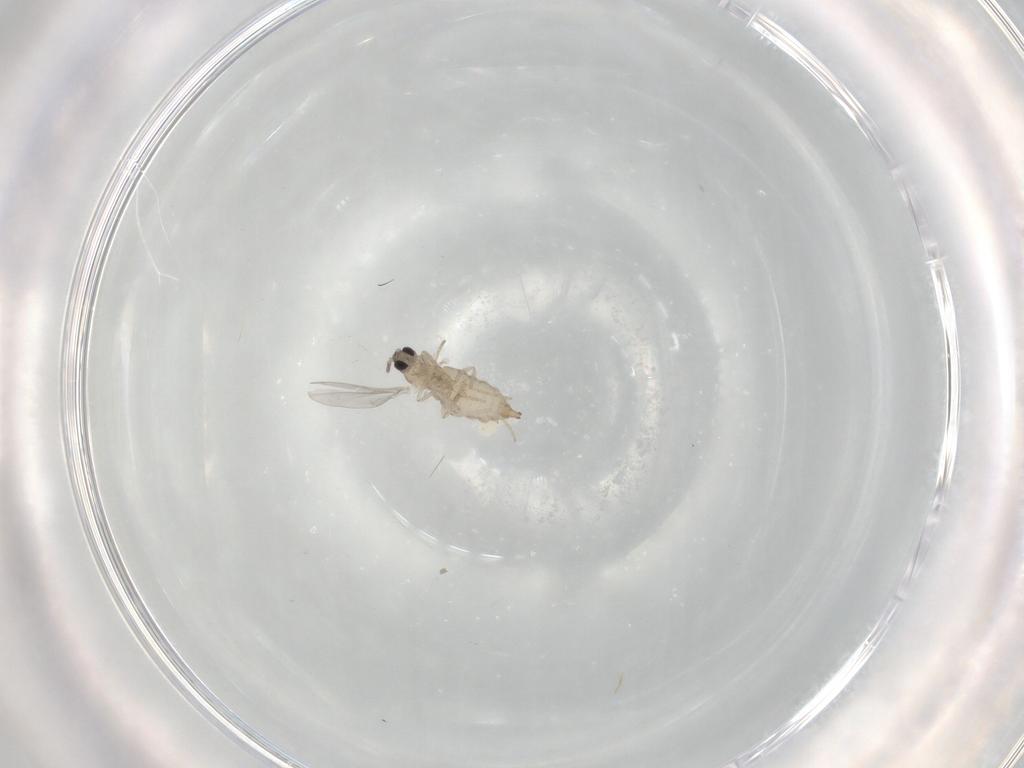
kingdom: Animalia
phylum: Arthropoda
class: Insecta
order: Diptera
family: Cecidomyiidae
